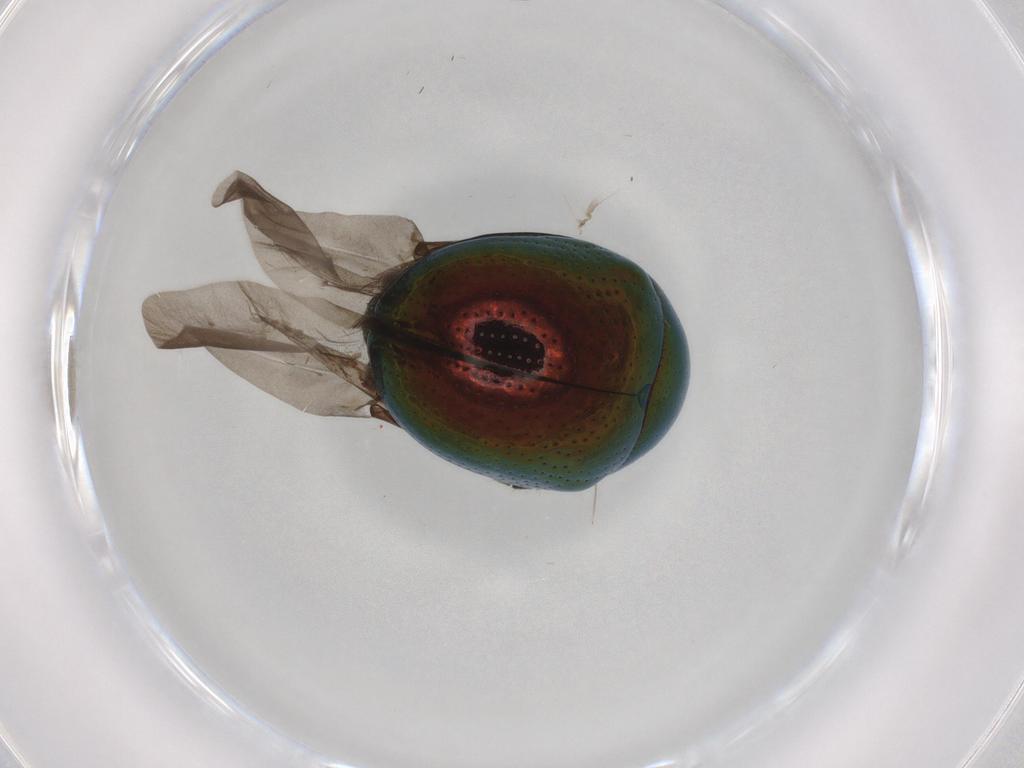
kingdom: Animalia
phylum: Arthropoda
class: Insecta
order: Coleoptera
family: Chrysomelidae
